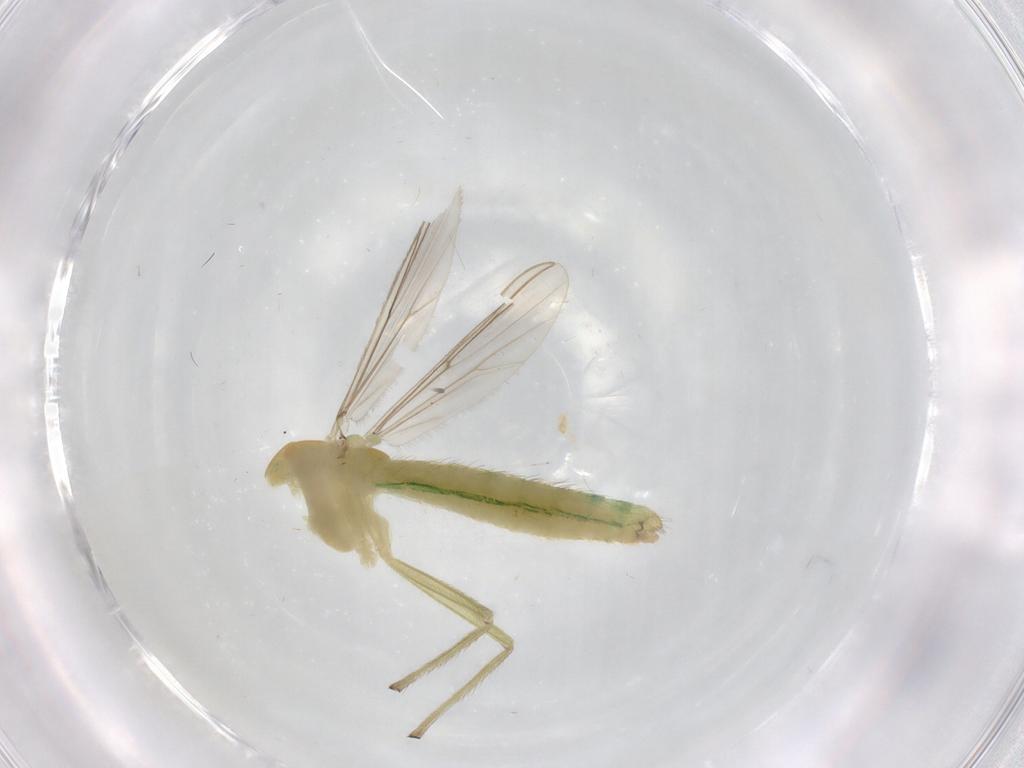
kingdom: Animalia
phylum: Arthropoda
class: Insecta
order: Diptera
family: Chironomidae
